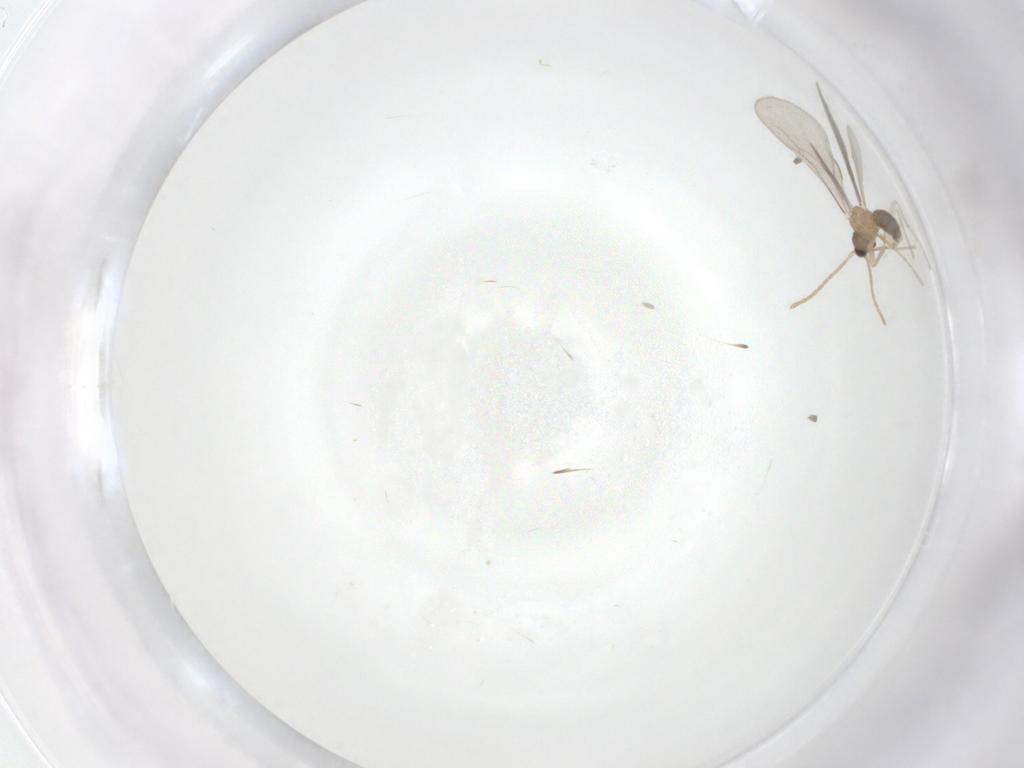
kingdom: Animalia
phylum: Arthropoda
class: Insecta
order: Hymenoptera
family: Formicidae
